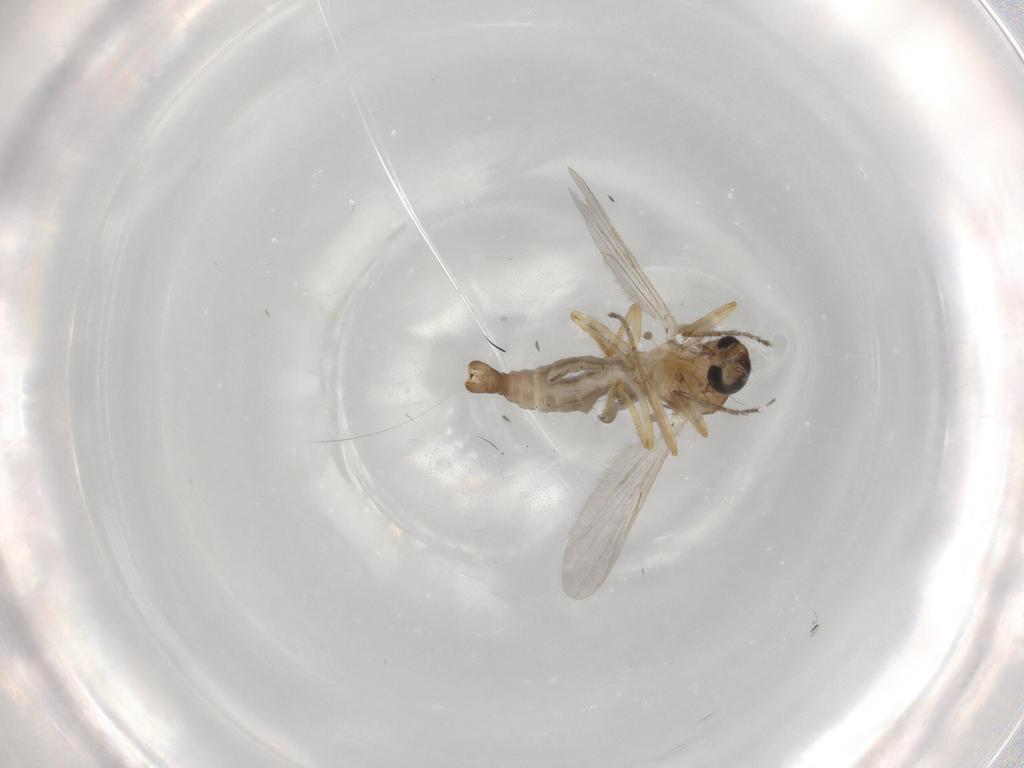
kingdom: Animalia
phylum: Arthropoda
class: Insecta
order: Diptera
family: Ceratopogonidae
